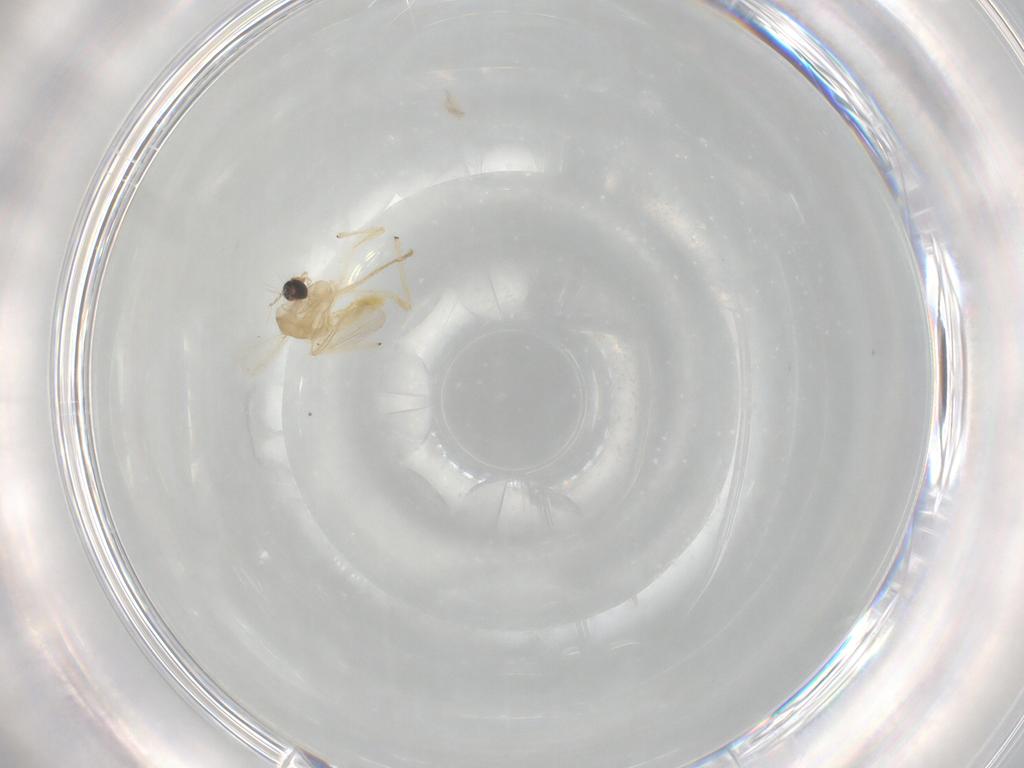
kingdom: Animalia
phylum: Arthropoda
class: Insecta
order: Diptera
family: Chironomidae
